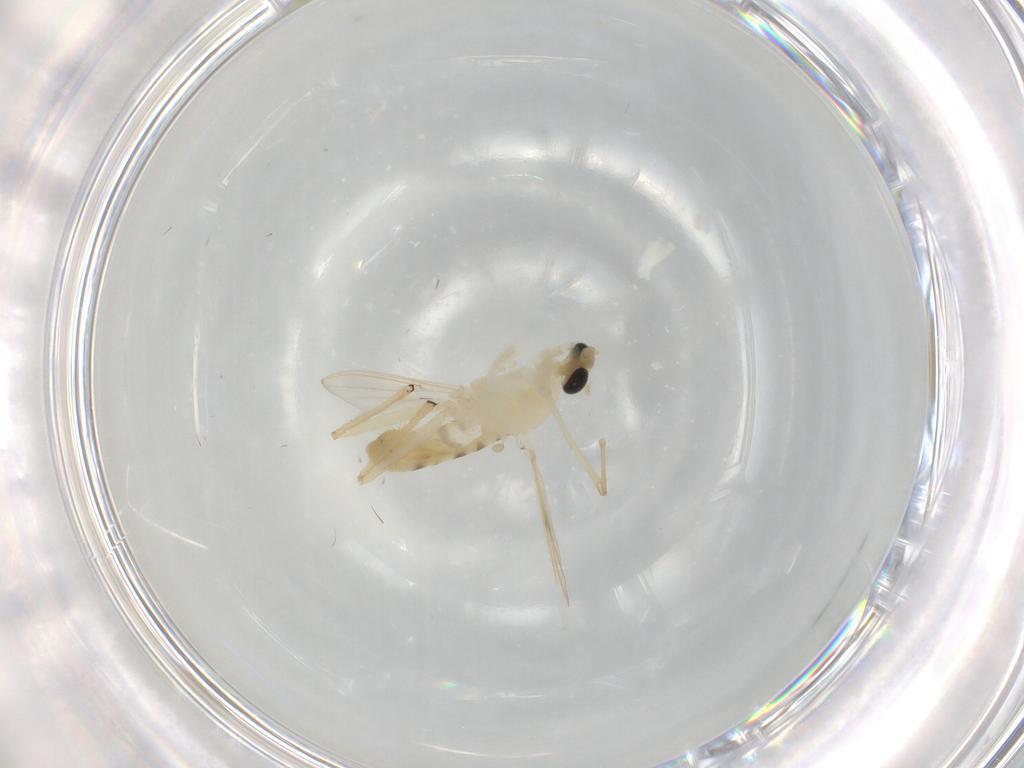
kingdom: Animalia
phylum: Arthropoda
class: Insecta
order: Diptera
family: Chironomidae
